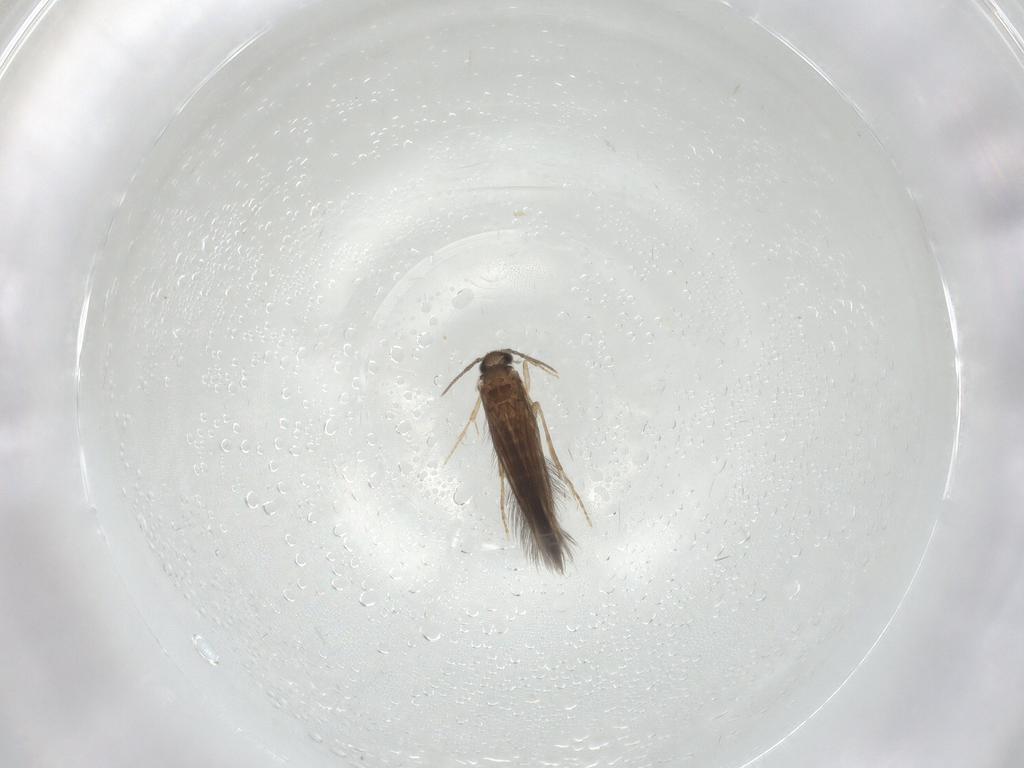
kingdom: Animalia
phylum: Arthropoda
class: Insecta
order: Trichoptera
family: Hydroptilidae
